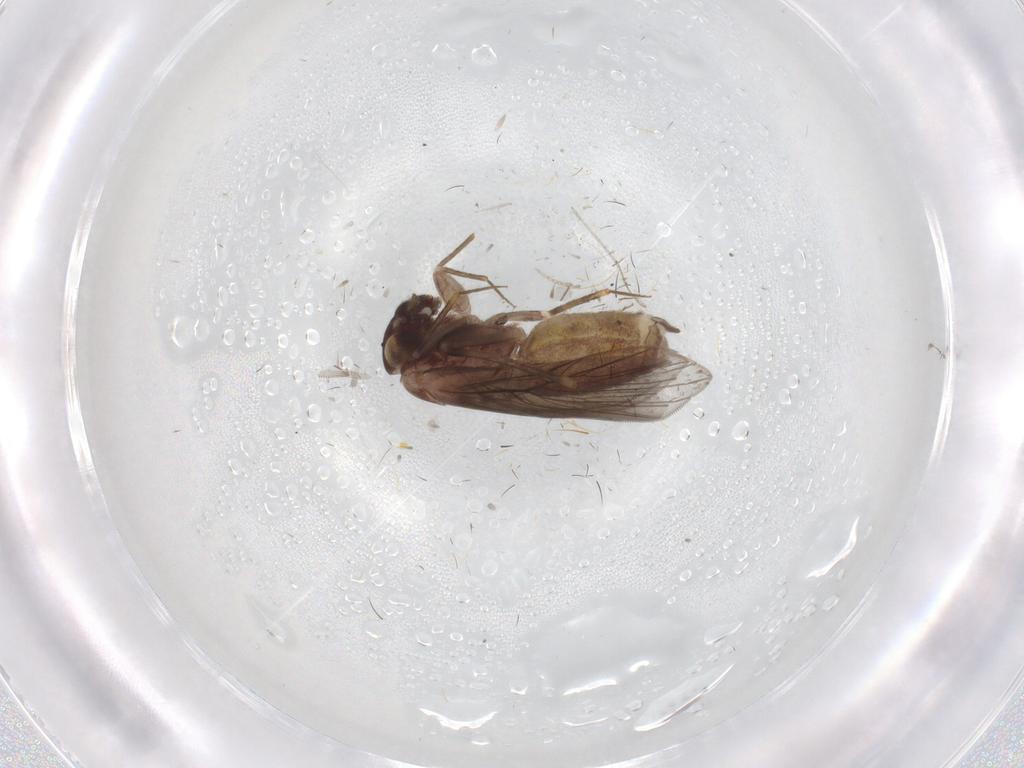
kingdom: Animalia
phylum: Arthropoda
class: Insecta
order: Psocodea
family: Lepidopsocidae
